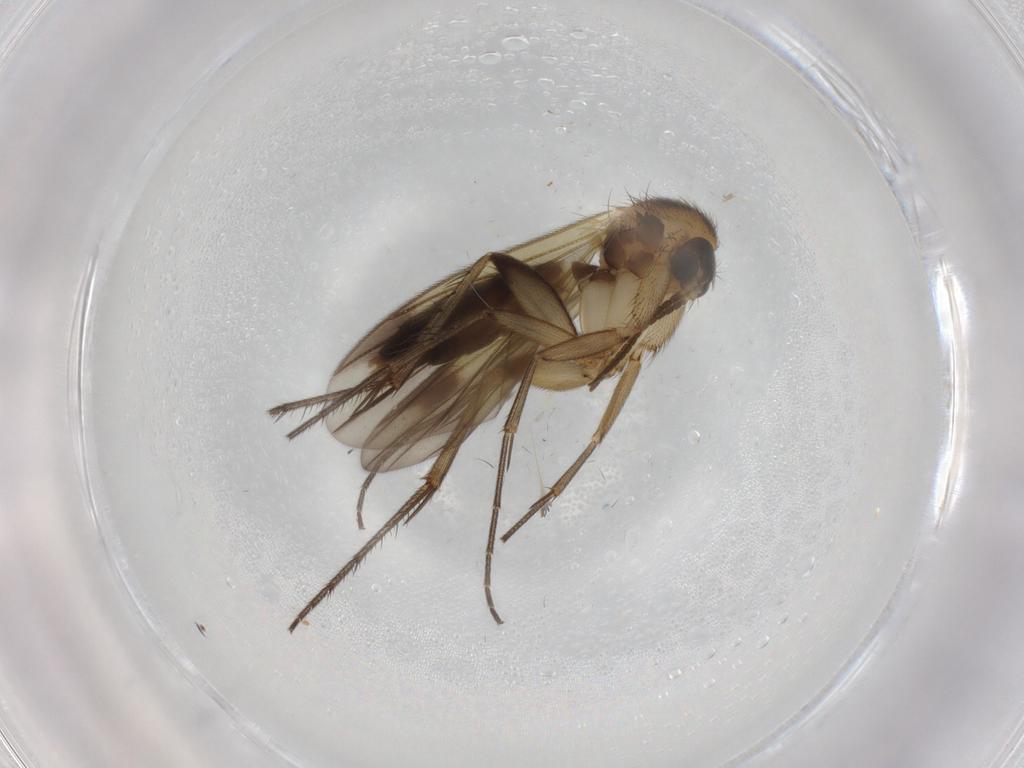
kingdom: Animalia
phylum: Arthropoda
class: Insecta
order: Diptera
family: Mycetophilidae
